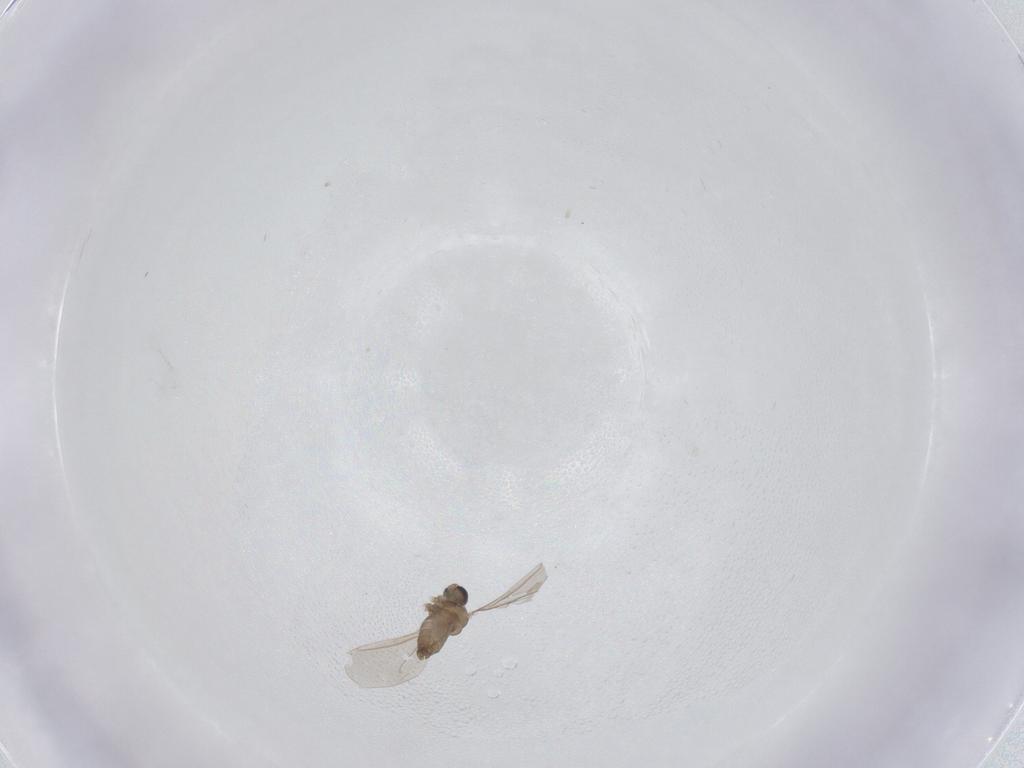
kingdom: Animalia
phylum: Arthropoda
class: Insecta
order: Diptera
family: Cecidomyiidae
